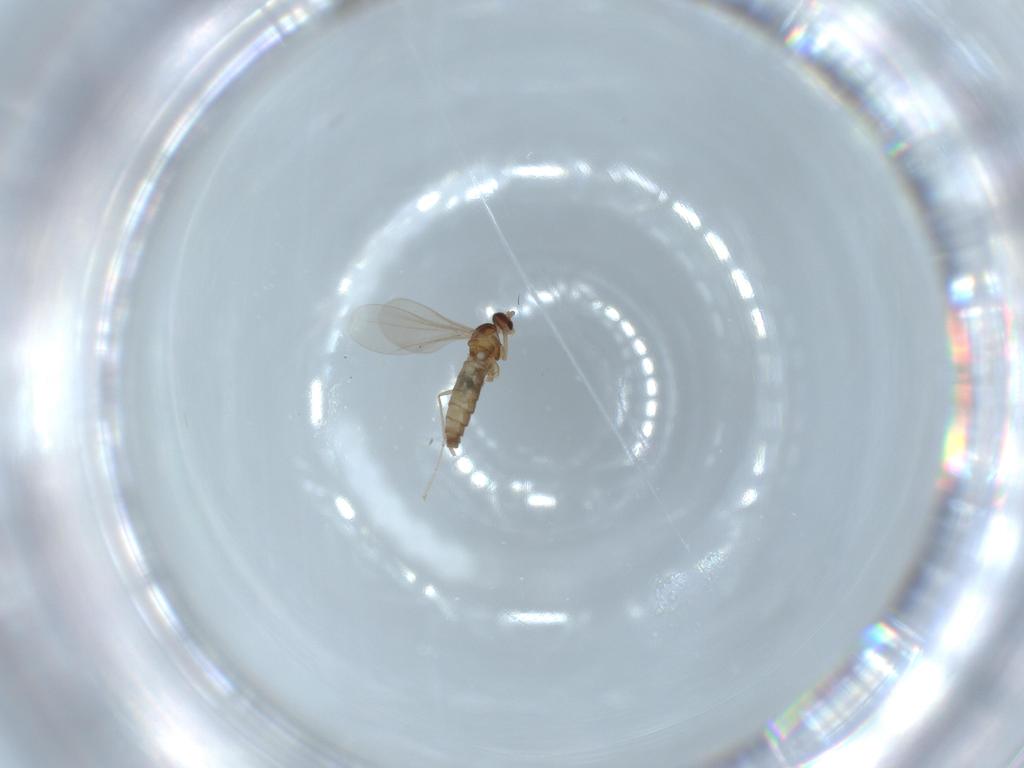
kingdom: Animalia
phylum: Arthropoda
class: Insecta
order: Diptera
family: Cecidomyiidae
